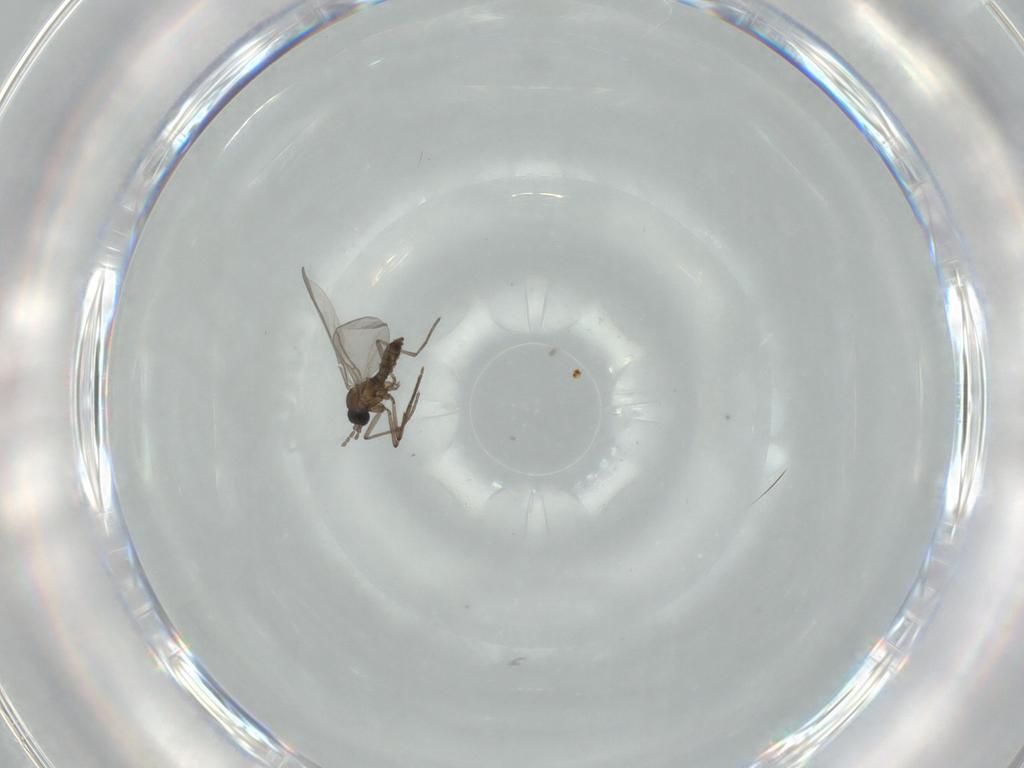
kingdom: Animalia
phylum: Arthropoda
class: Insecta
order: Diptera
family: Chironomidae
